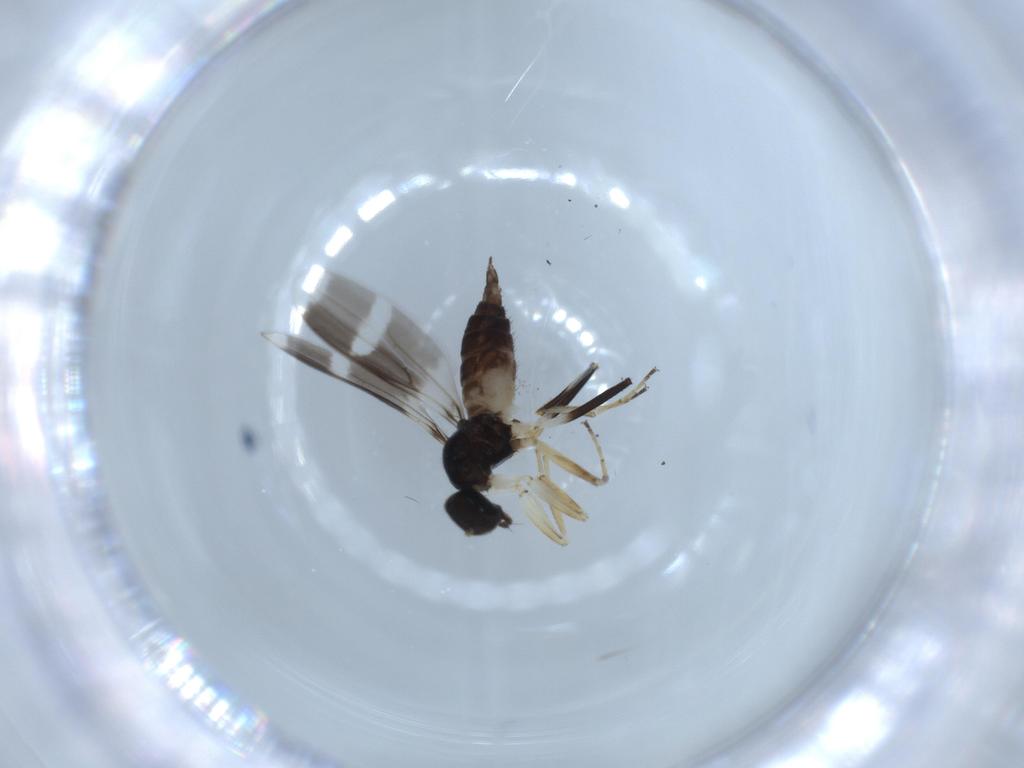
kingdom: Animalia
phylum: Arthropoda
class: Insecta
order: Diptera
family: Hybotidae
